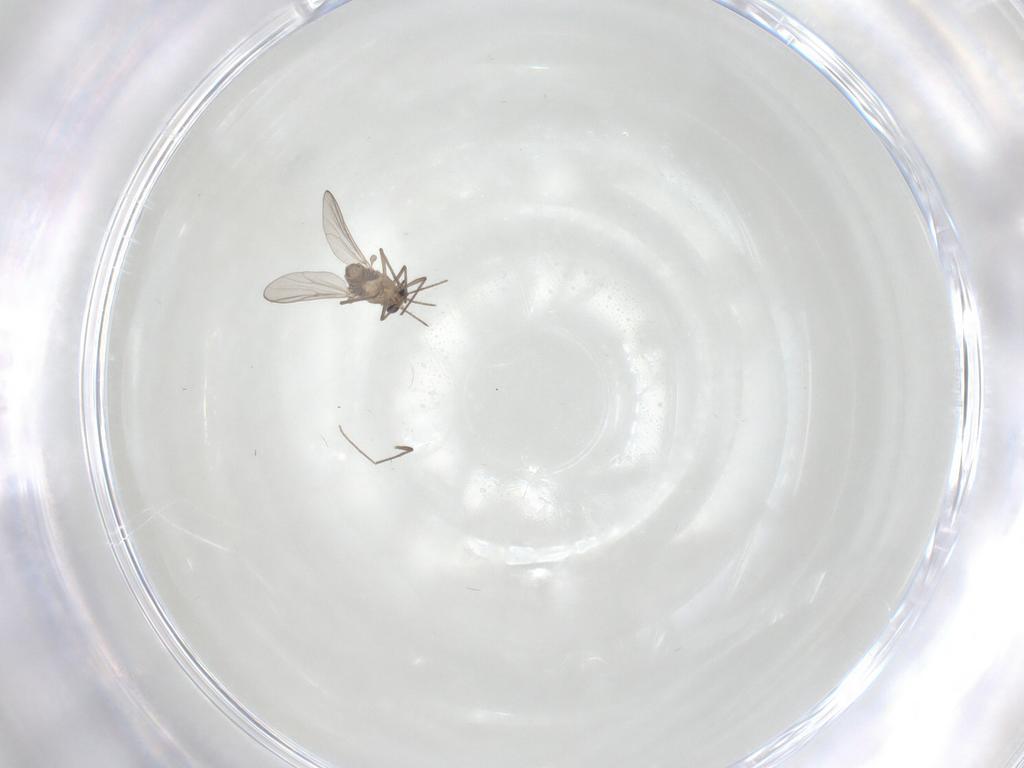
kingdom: Animalia
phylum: Arthropoda
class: Insecta
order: Diptera
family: Chironomidae
